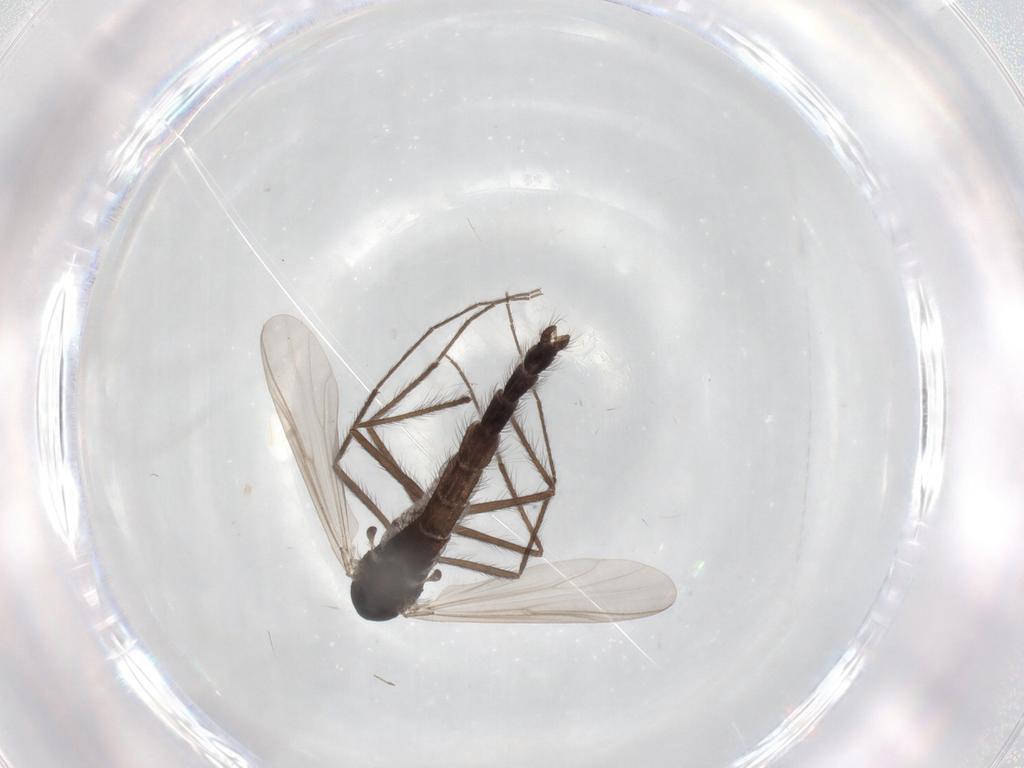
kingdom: Animalia
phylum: Arthropoda
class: Insecta
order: Diptera
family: Chironomidae
